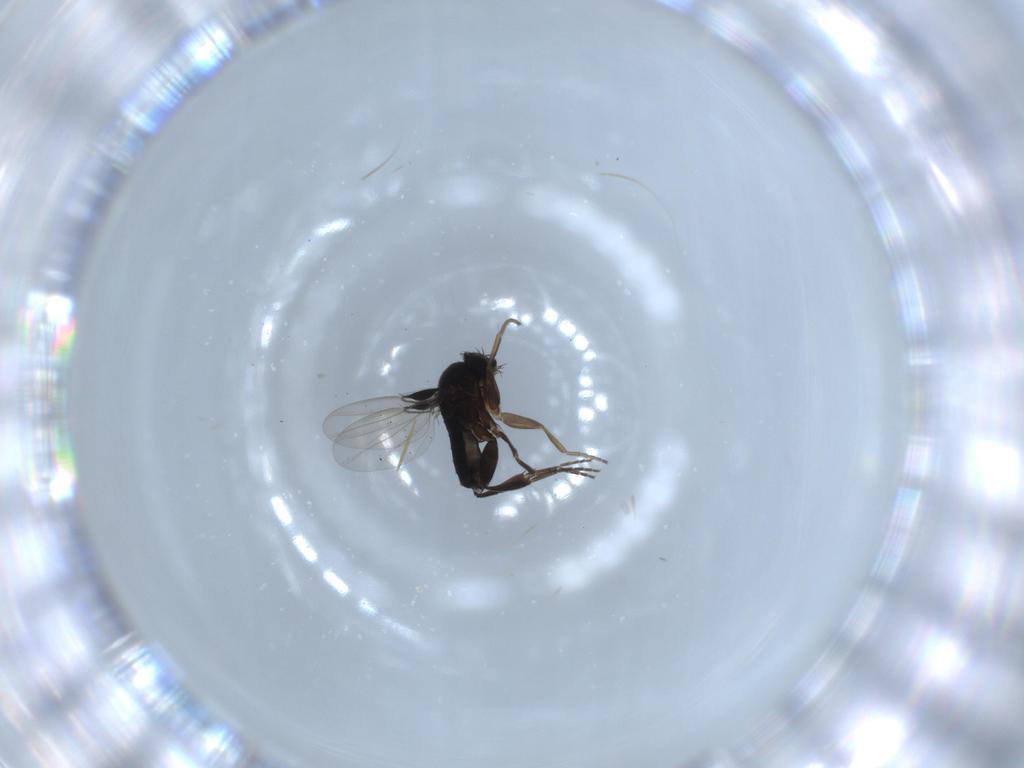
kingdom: Animalia
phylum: Arthropoda
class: Insecta
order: Diptera
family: Phoridae
